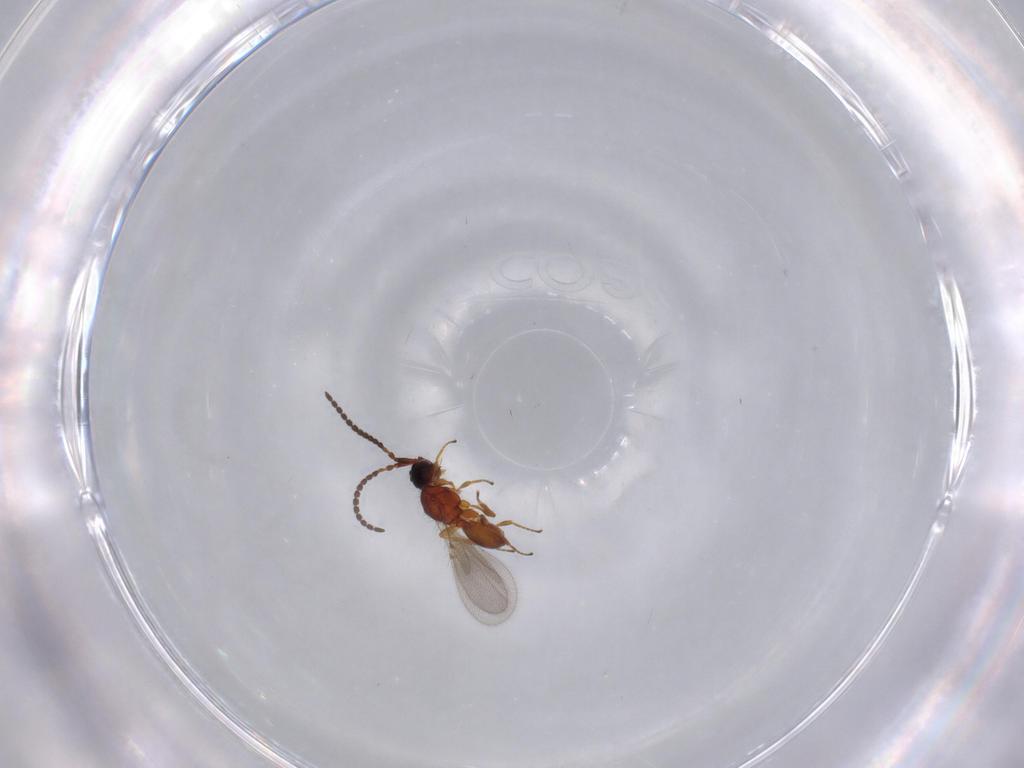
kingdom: Animalia
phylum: Arthropoda
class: Insecta
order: Hymenoptera
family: Diapriidae
